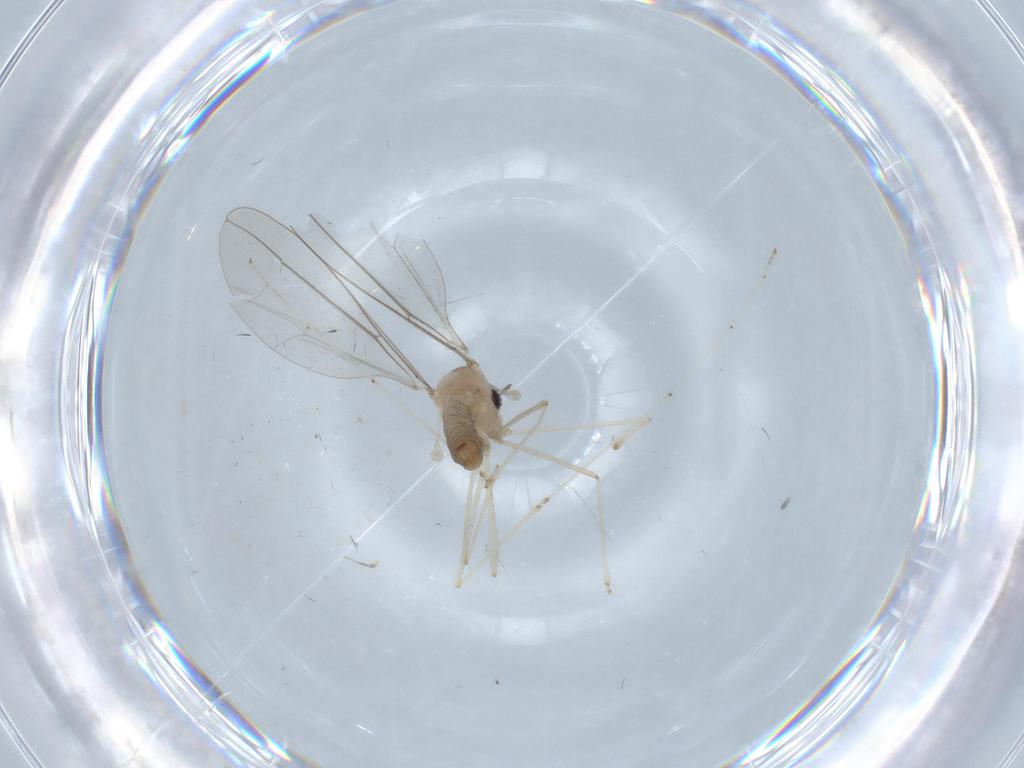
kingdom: Animalia
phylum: Arthropoda
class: Insecta
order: Diptera
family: Cecidomyiidae
